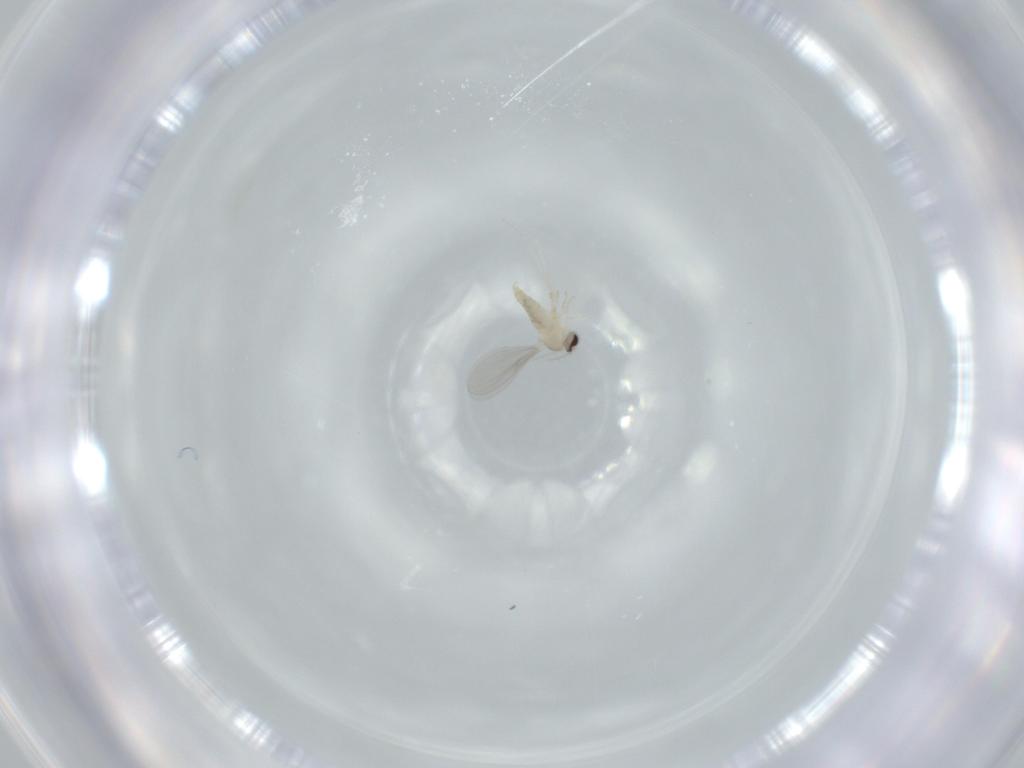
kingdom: Animalia
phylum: Arthropoda
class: Insecta
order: Diptera
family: Cecidomyiidae
